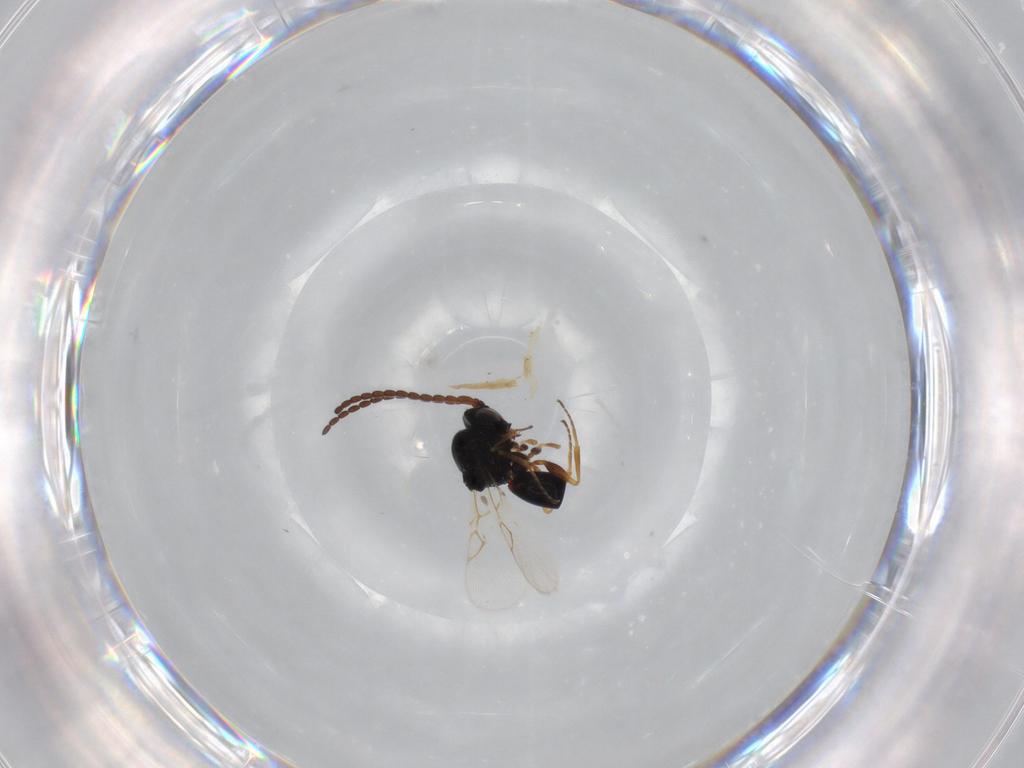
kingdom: Animalia
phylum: Arthropoda
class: Insecta
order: Hymenoptera
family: Figitidae
